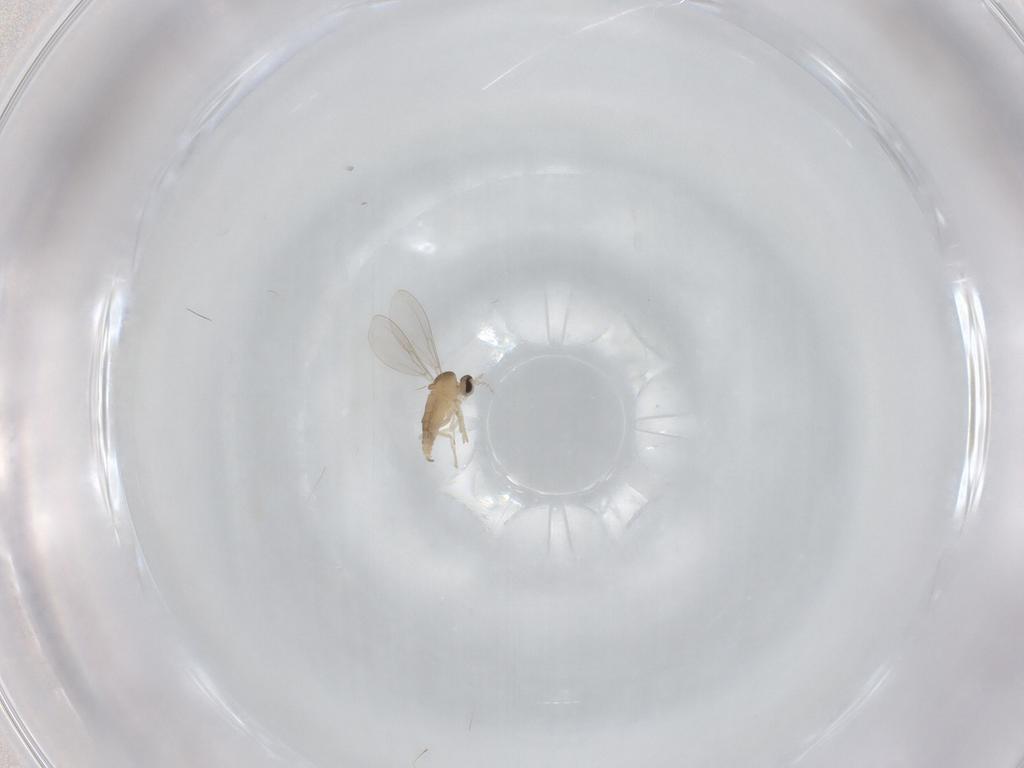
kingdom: Animalia
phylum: Arthropoda
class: Insecta
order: Diptera
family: Cecidomyiidae
